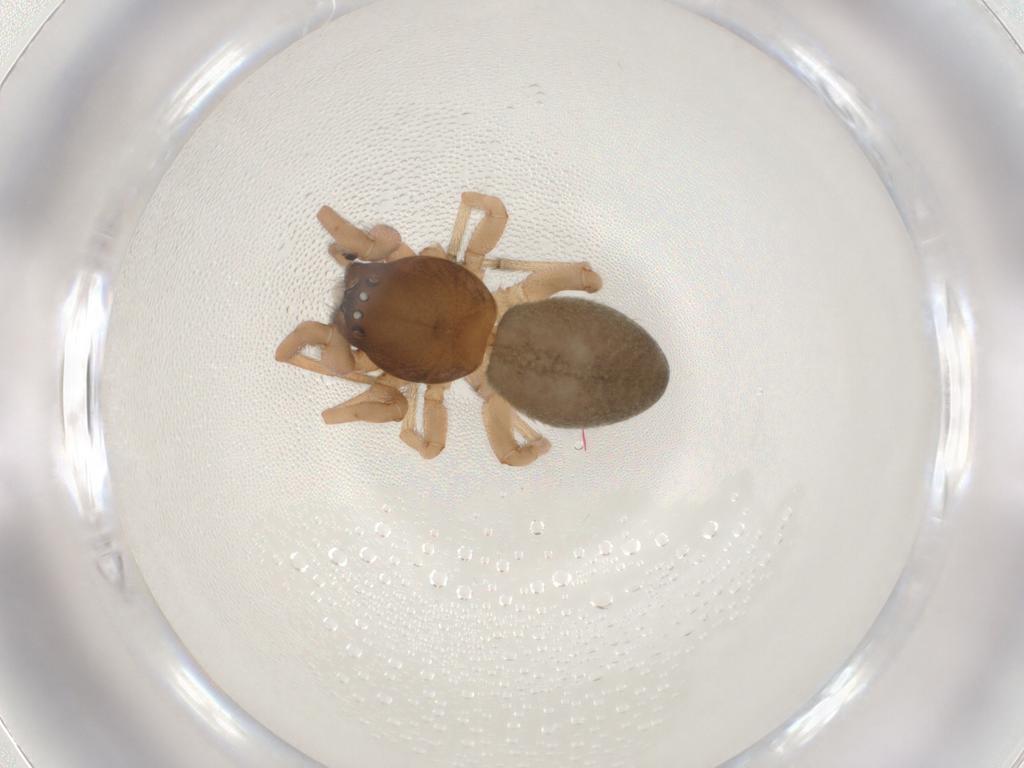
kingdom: Animalia
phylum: Arthropoda
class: Arachnida
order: Araneae
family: Trachelidae
